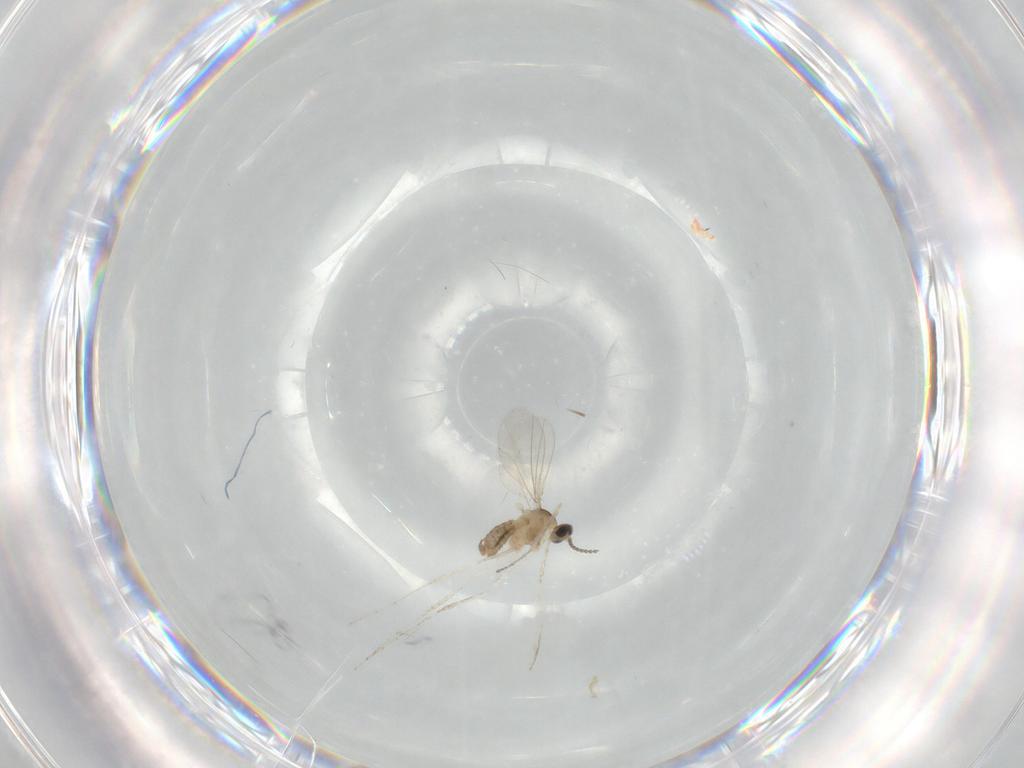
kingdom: Animalia
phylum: Arthropoda
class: Insecta
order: Diptera
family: Cecidomyiidae
